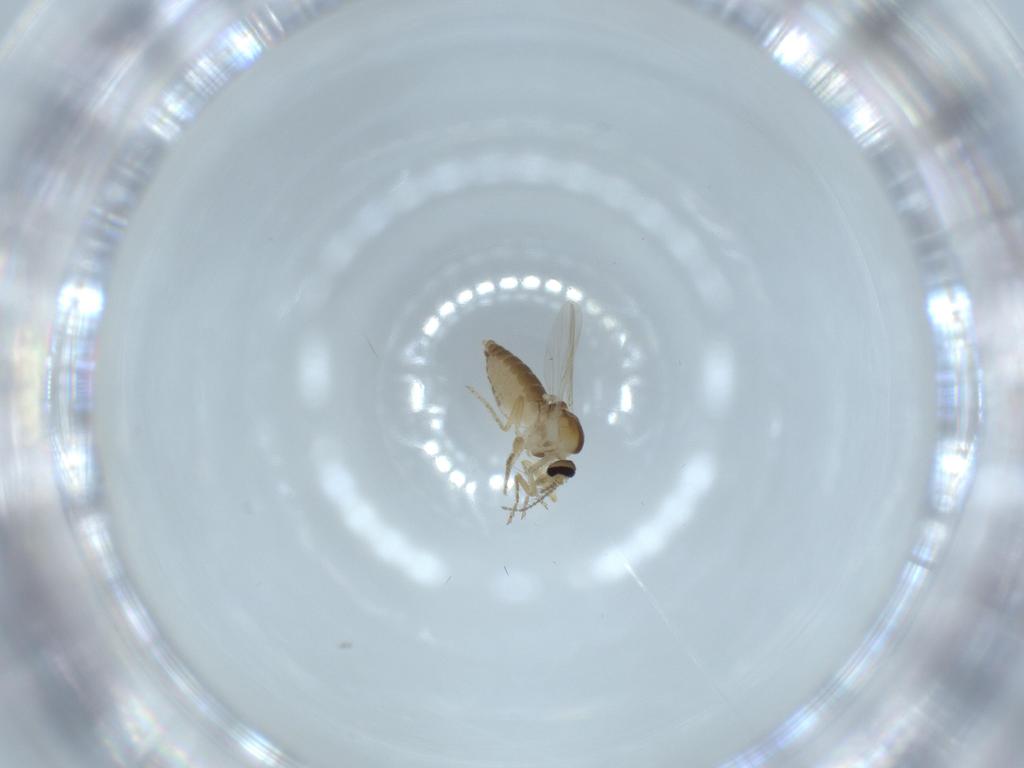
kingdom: Animalia
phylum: Arthropoda
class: Insecta
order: Diptera
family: Ceratopogonidae
